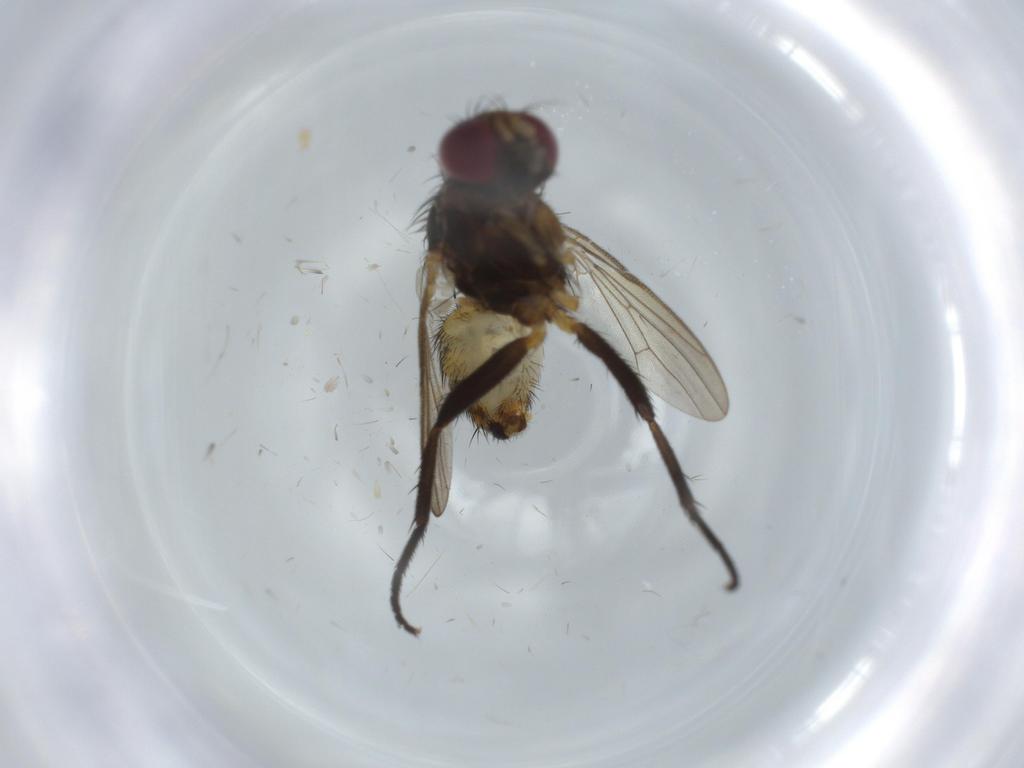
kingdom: Animalia
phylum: Arthropoda
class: Insecta
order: Diptera
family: Anthomyiidae
